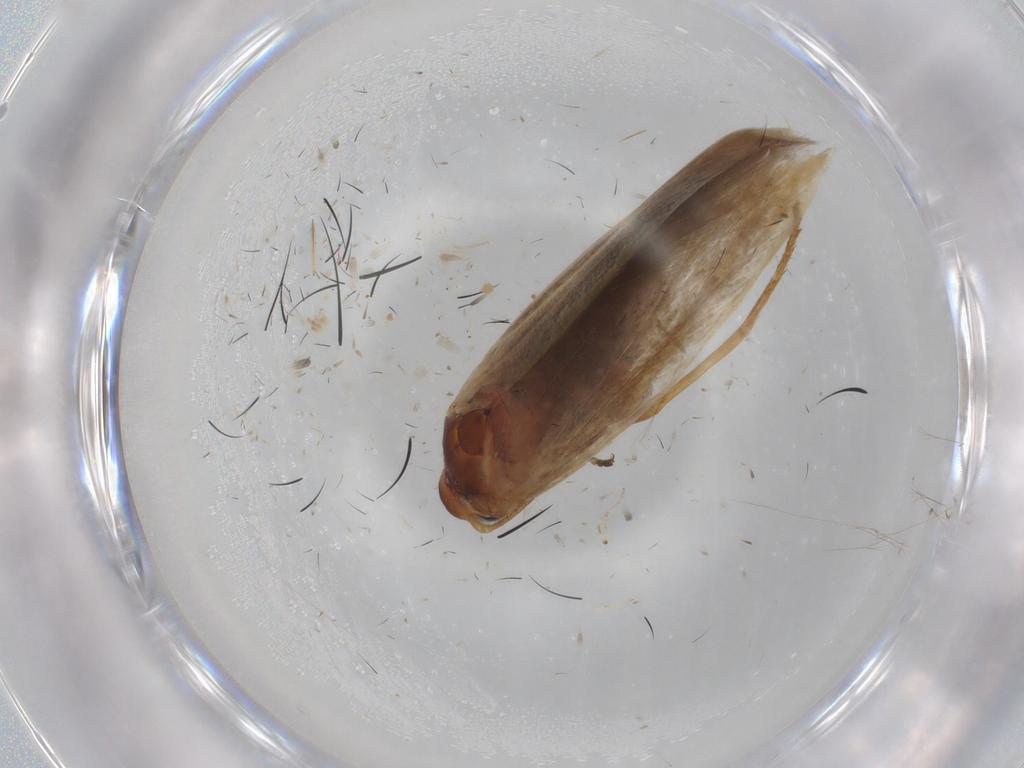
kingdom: Animalia
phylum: Arthropoda
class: Insecta
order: Lepidoptera
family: Scythrididae
